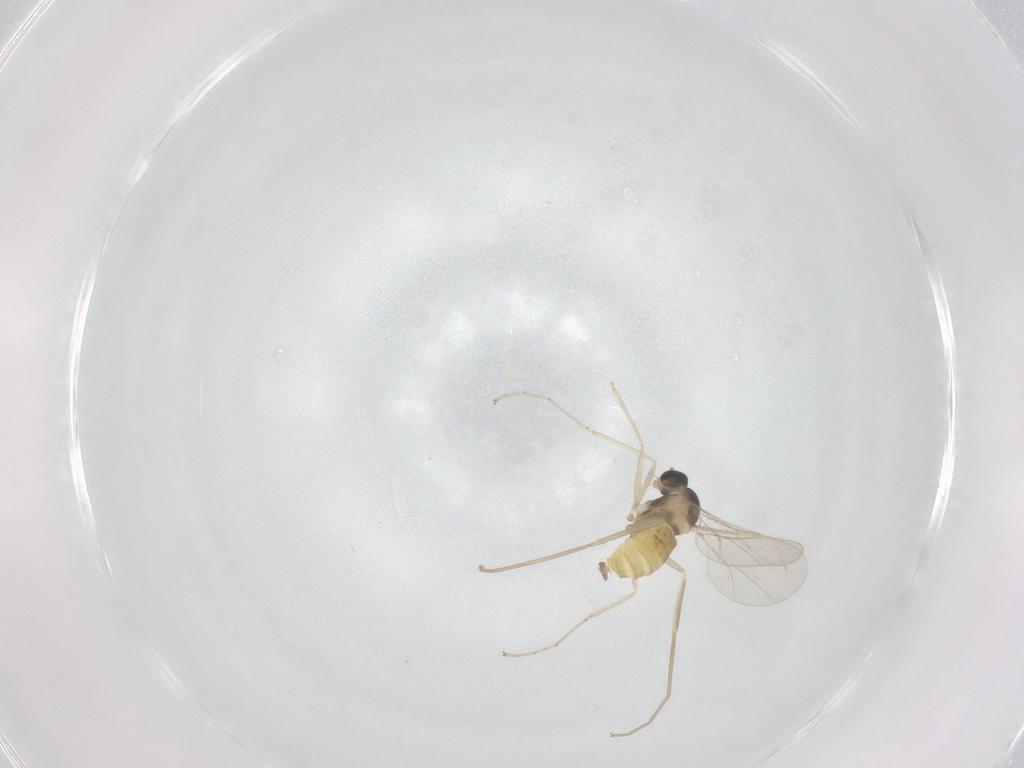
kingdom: Animalia
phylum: Arthropoda
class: Insecta
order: Diptera
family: Cecidomyiidae
